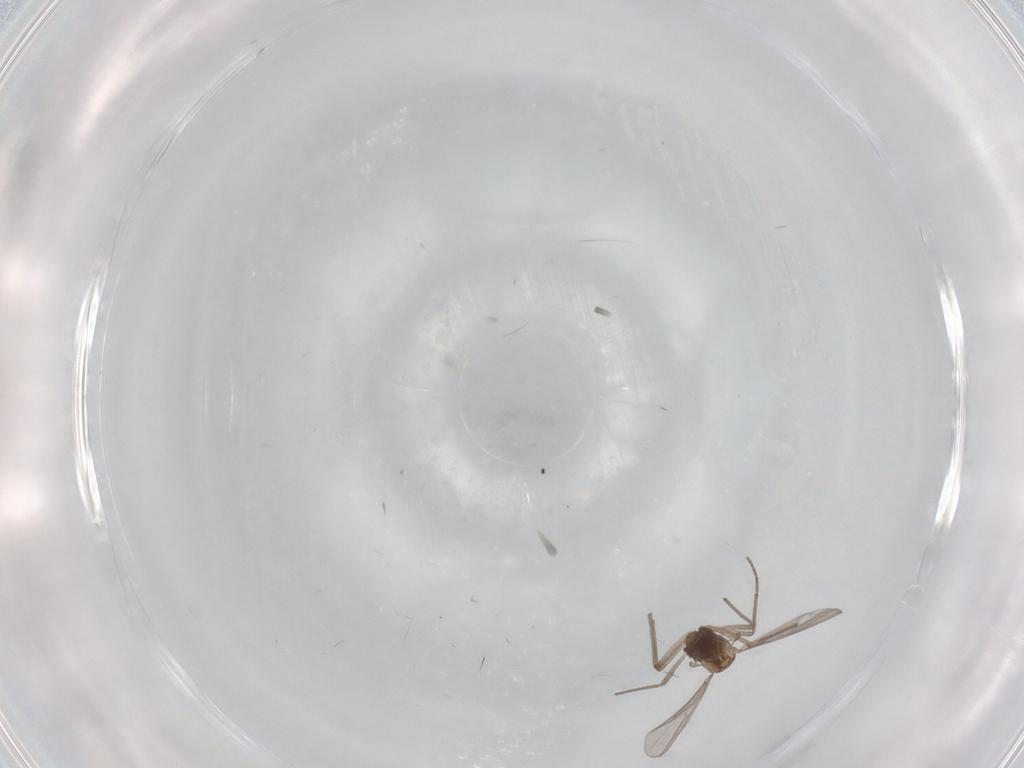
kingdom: Animalia
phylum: Arthropoda
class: Insecta
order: Diptera
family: Chironomidae
